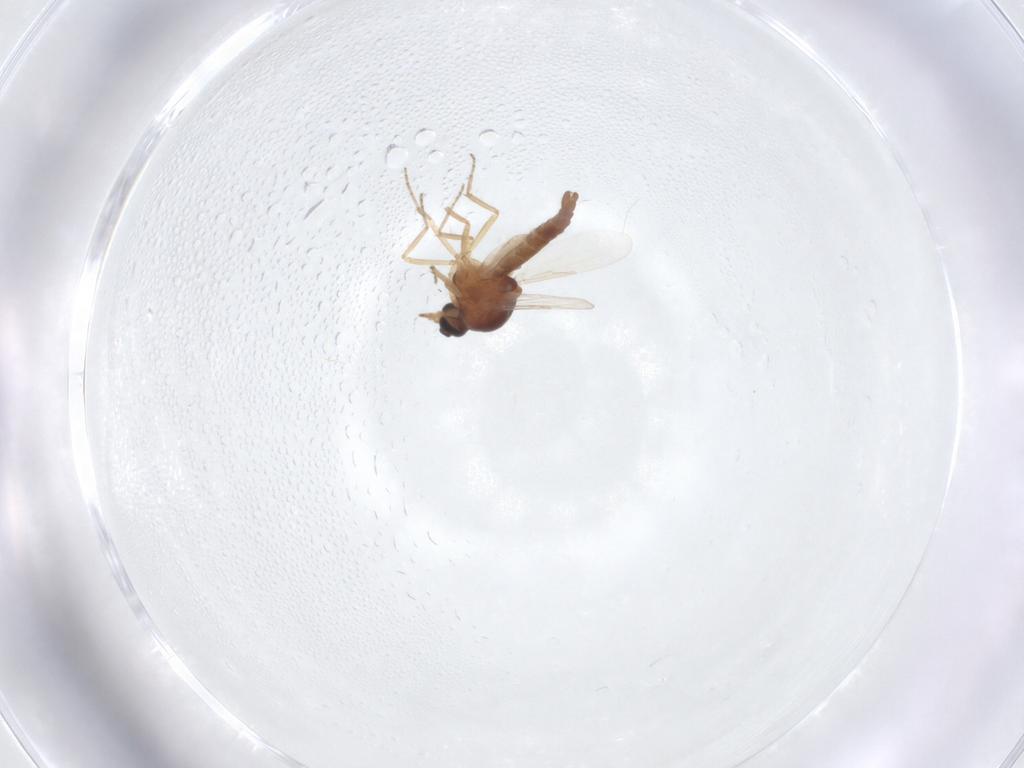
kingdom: Animalia
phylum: Arthropoda
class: Insecta
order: Diptera
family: Ceratopogonidae
